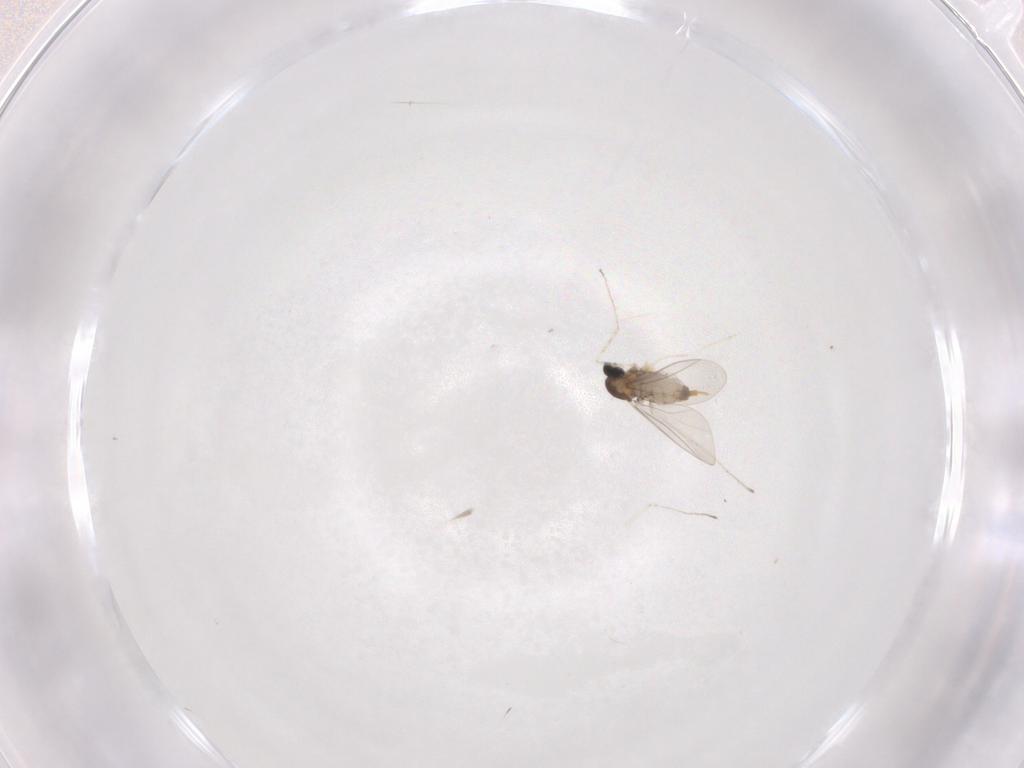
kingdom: Animalia
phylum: Arthropoda
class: Insecta
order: Diptera
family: Cecidomyiidae
